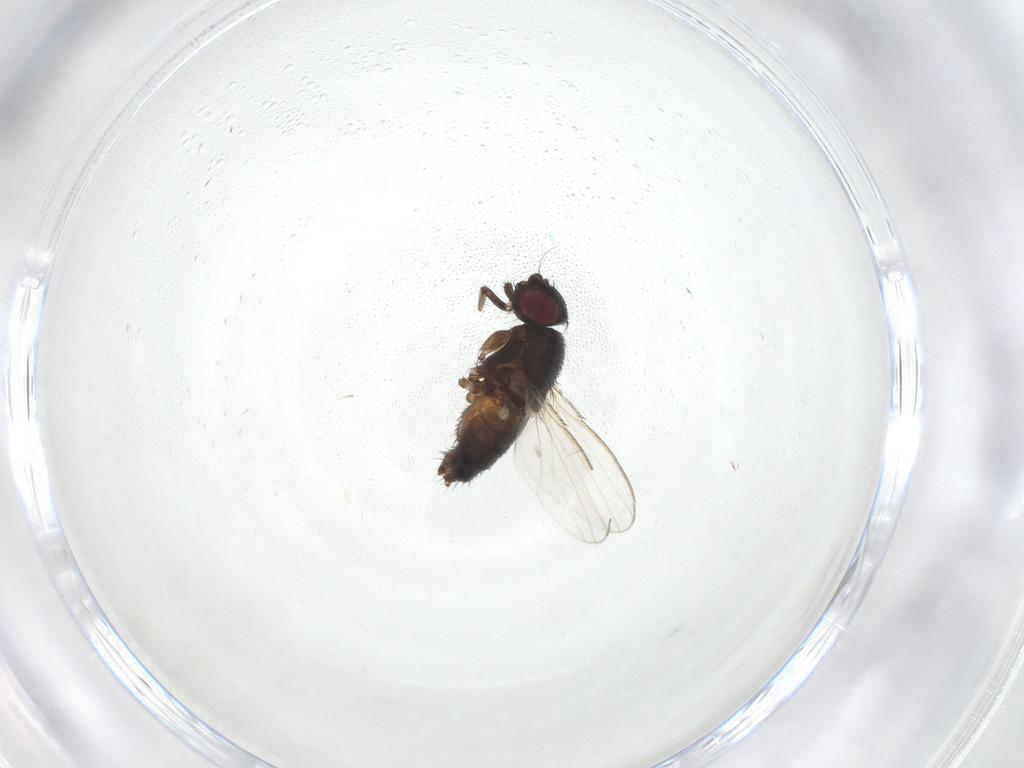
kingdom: Animalia
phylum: Arthropoda
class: Insecta
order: Diptera
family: Milichiidae
